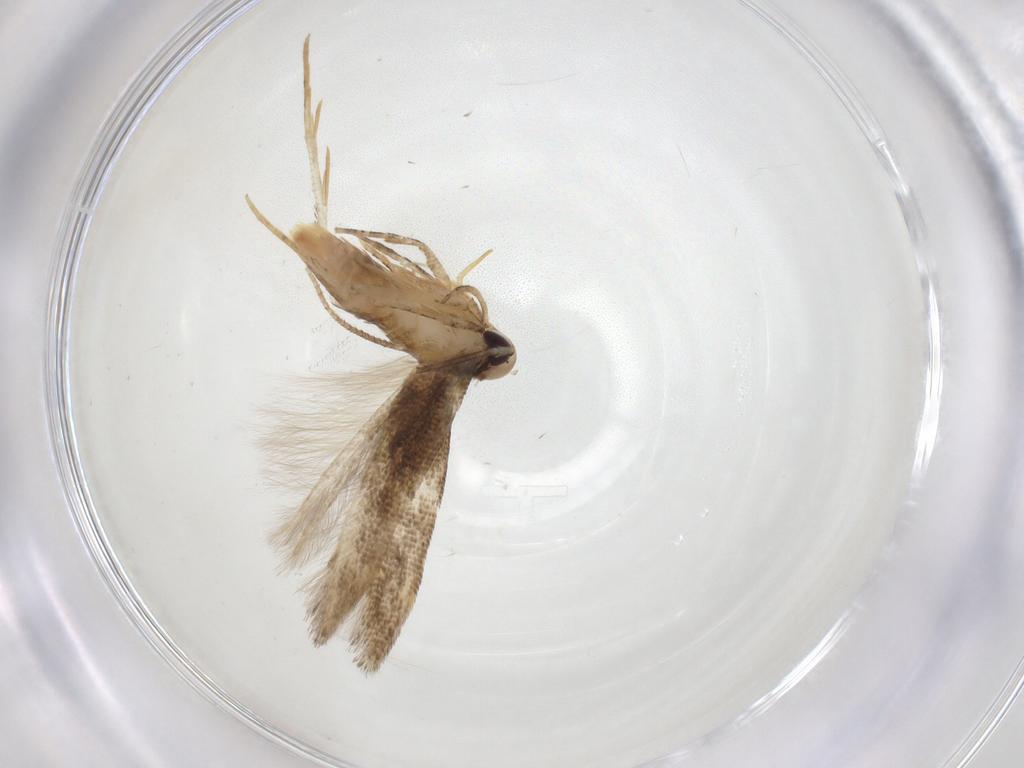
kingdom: Animalia
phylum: Arthropoda
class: Insecta
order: Lepidoptera
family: Cosmopterigidae
